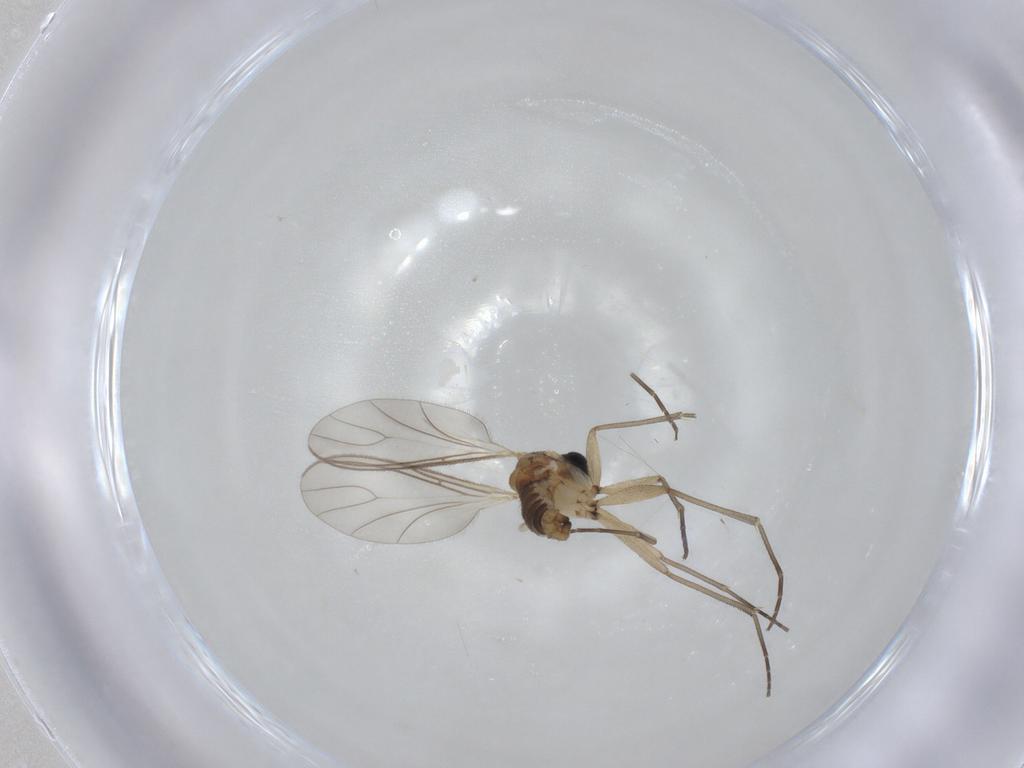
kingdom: Animalia
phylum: Arthropoda
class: Insecta
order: Diptera
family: Sciaridae
